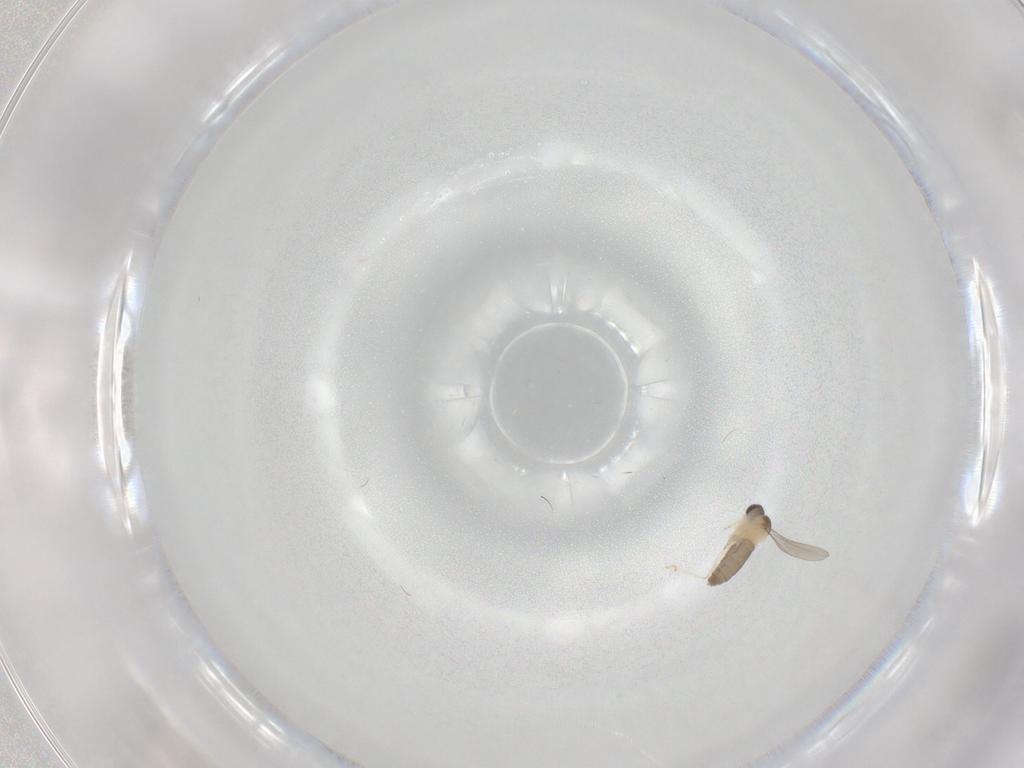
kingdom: Animalia
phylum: Arthropoda
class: Insecta
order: Diptera
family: Cecidomyiidae
